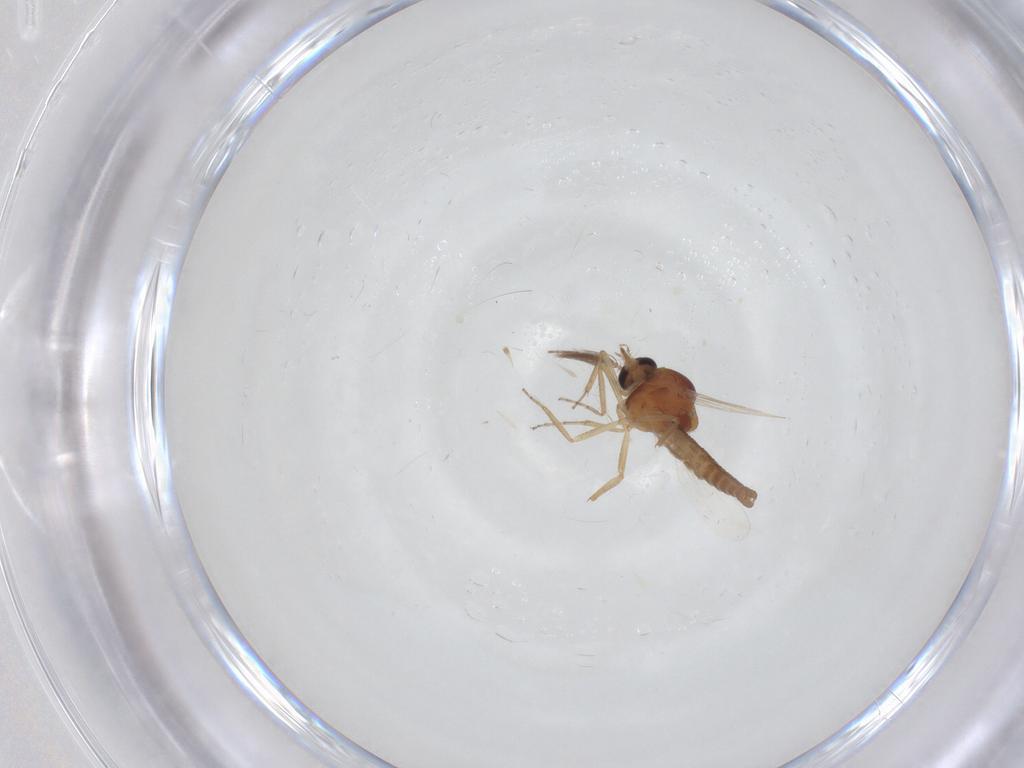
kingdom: Animalia
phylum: Arthropoda
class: Insecta
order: Diptera
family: Ceratopogonidae
